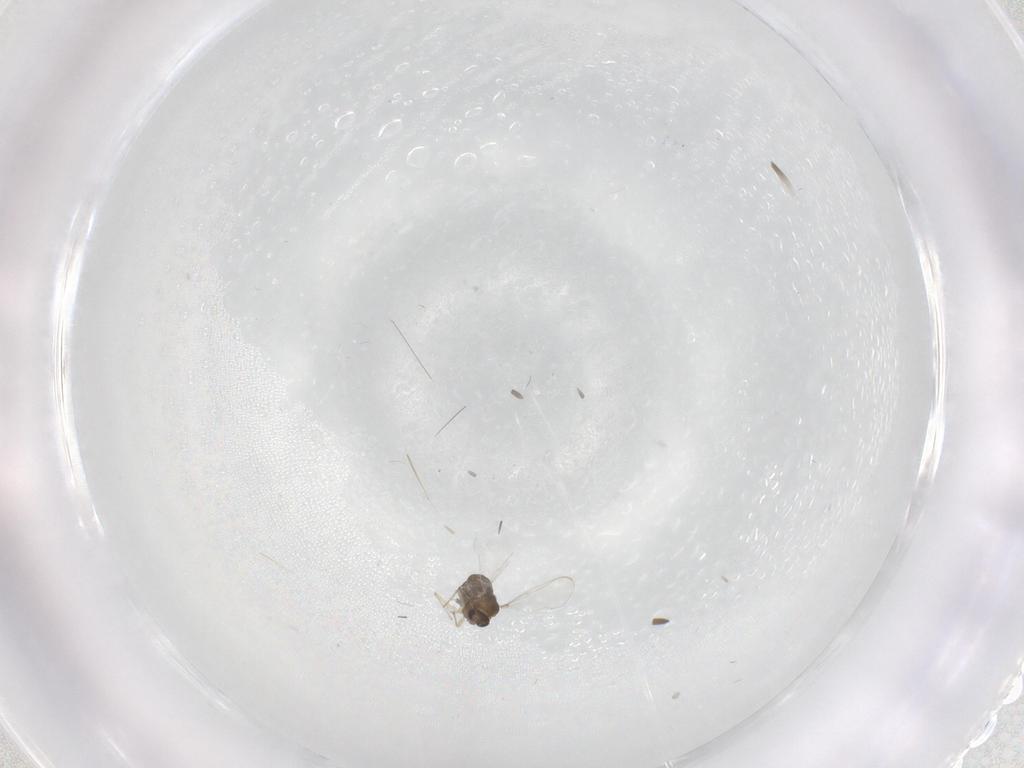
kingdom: Animalia
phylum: Arthropoda
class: Insecta
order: Diptera
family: Chironomidae
